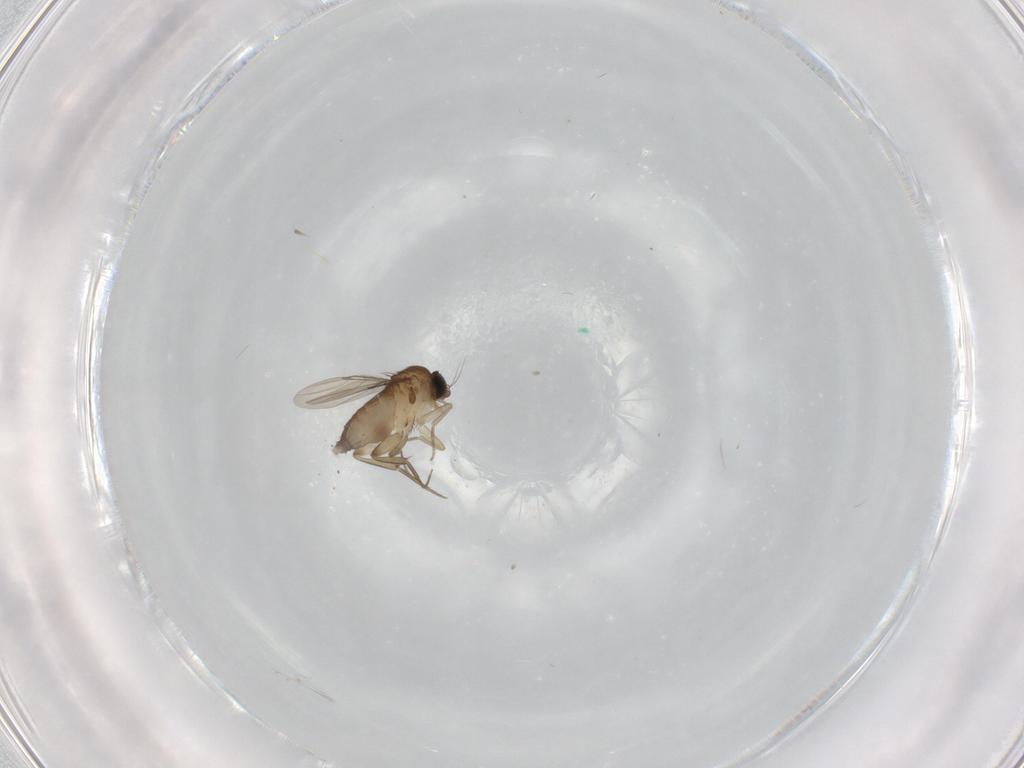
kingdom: Animalia
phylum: Arthropoda
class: Insecta
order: Diptera
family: Phoridae
